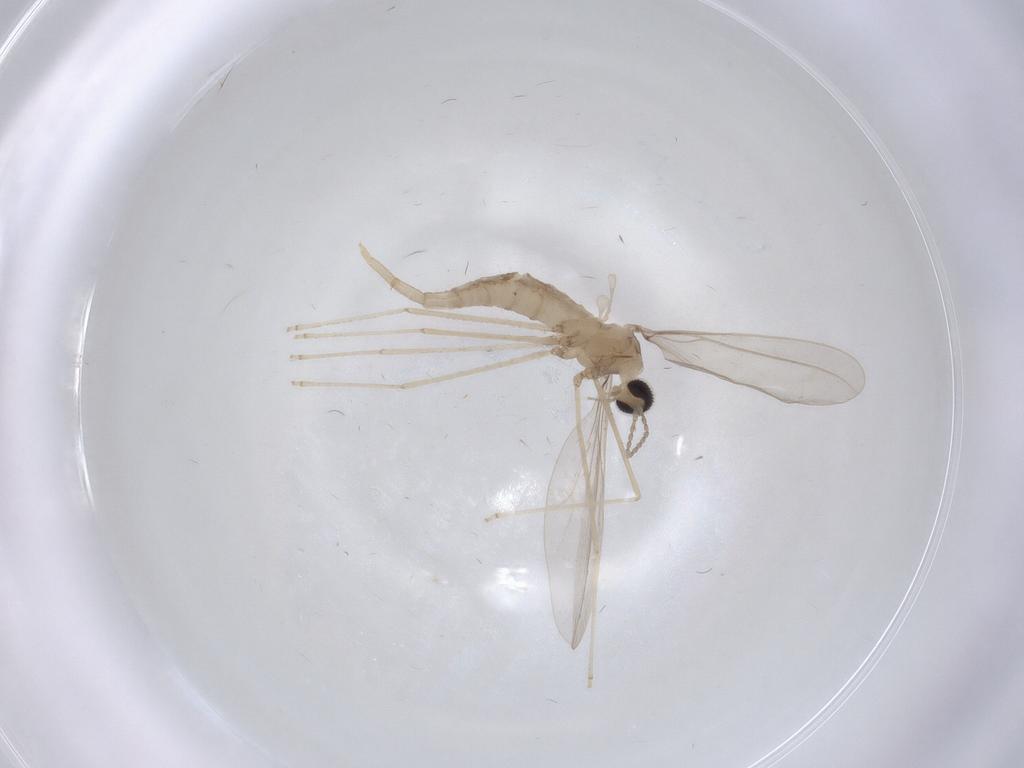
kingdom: Animalia
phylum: Arthropoda
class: Insecta
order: Diptera
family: Cecidomyiidae
